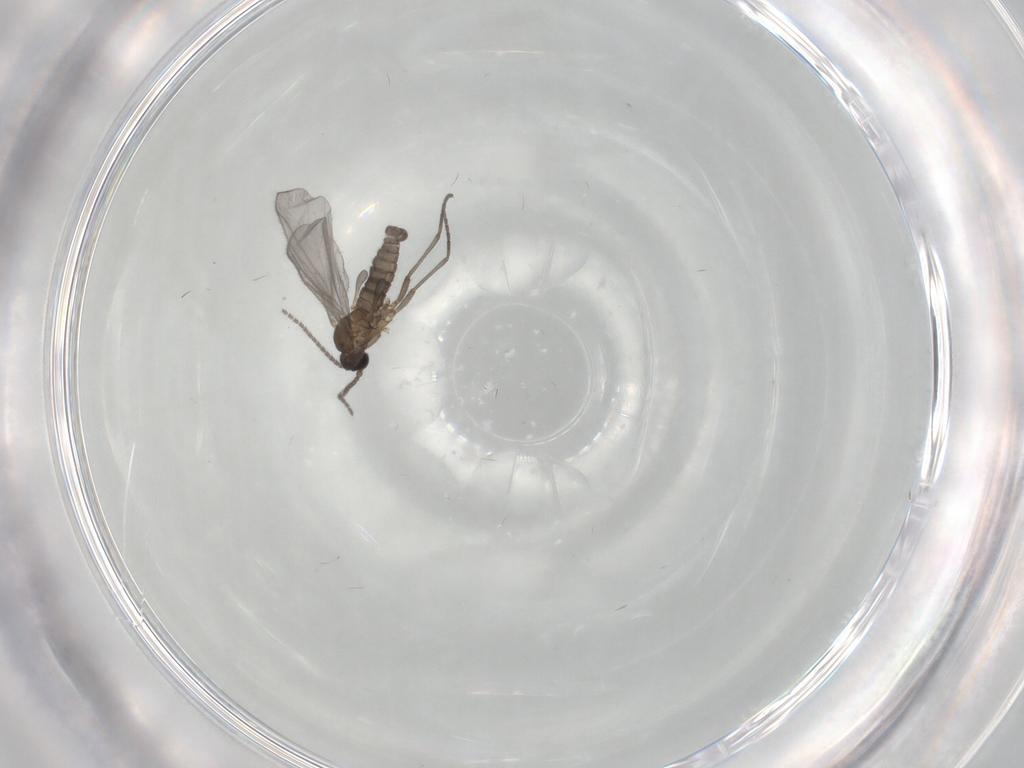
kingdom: Animalia
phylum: Arthropoda
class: Insecta
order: Diptera
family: Sciaridae
